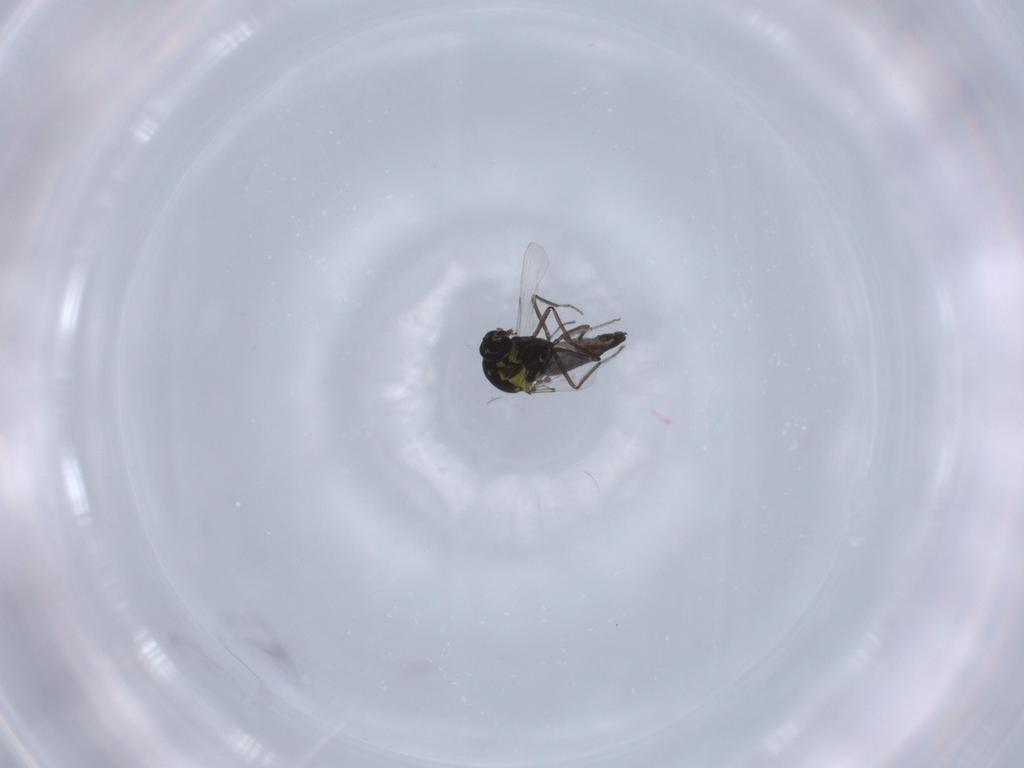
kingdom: Animalia
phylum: Arthropoda
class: Insecta
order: Diptera
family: Ceratopogonidae
